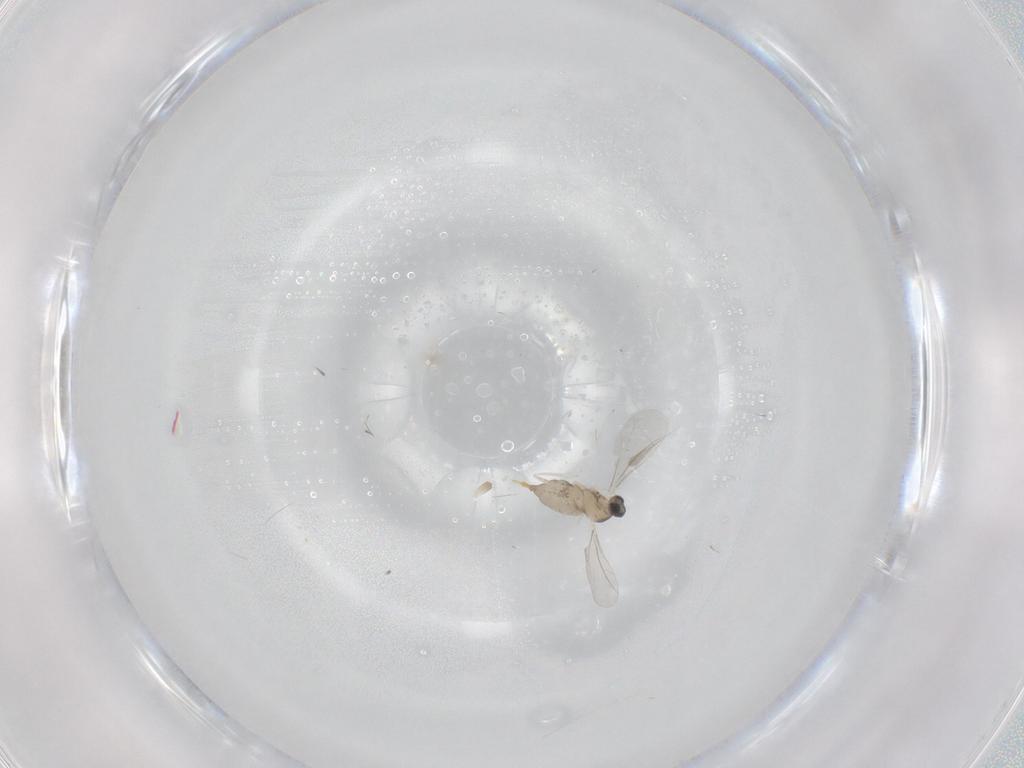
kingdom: Animalia
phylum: Arthropoda
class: Insecta
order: Diptera
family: Cecidomyiidae
